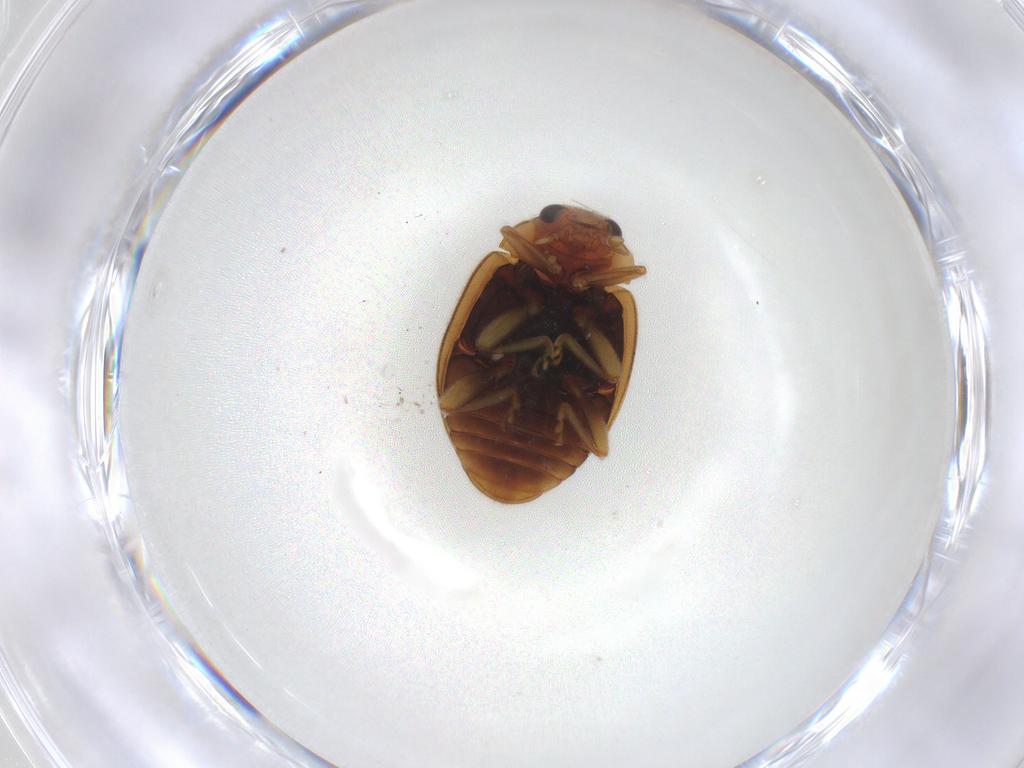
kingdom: Animalia
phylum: Arthropoda
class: Insecta
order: Coleoptera
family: Coccinellidae
